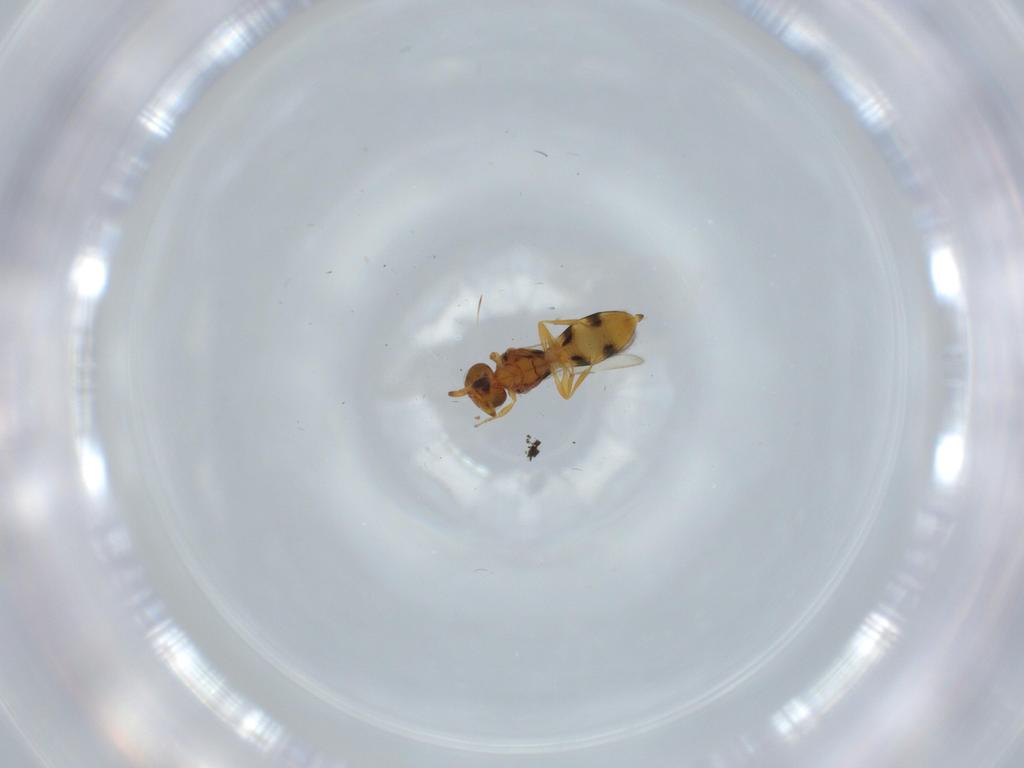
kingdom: Animalia
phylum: Arthropoda
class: Insecta
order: Hymenoptera
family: Scelionidae
